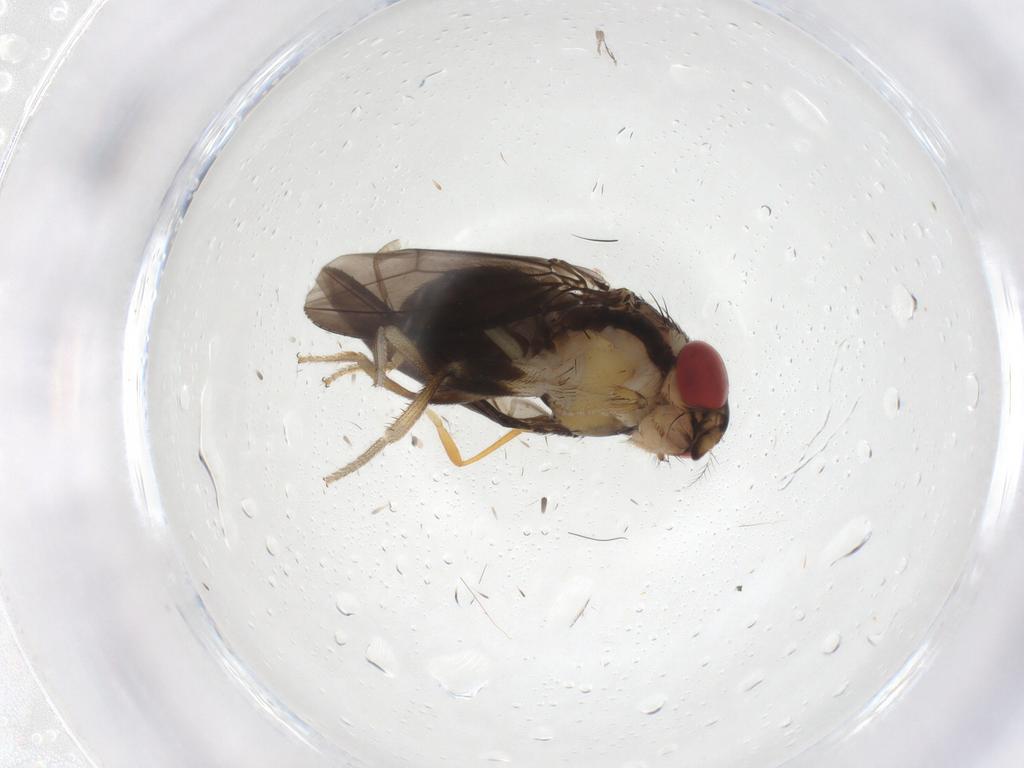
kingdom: Animalia
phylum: Arthropoda
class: Insecta
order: Diptera
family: Drosophilidae
